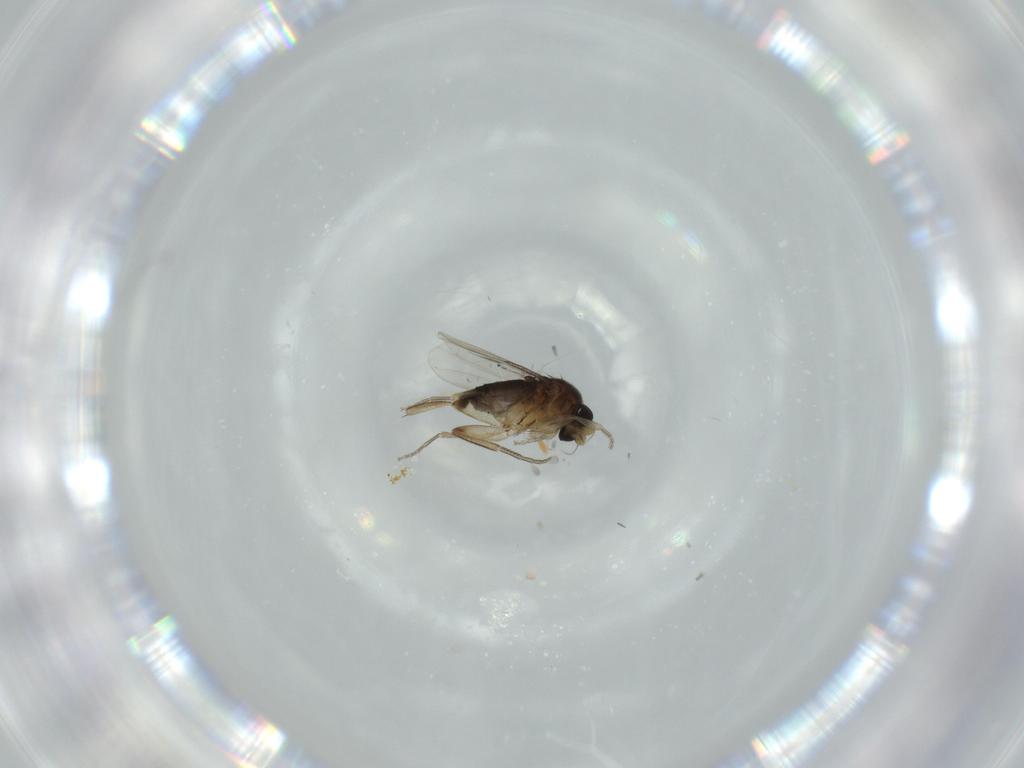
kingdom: Animalia
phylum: Arthropoda
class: Insecta
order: Diptera
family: Phoridae
